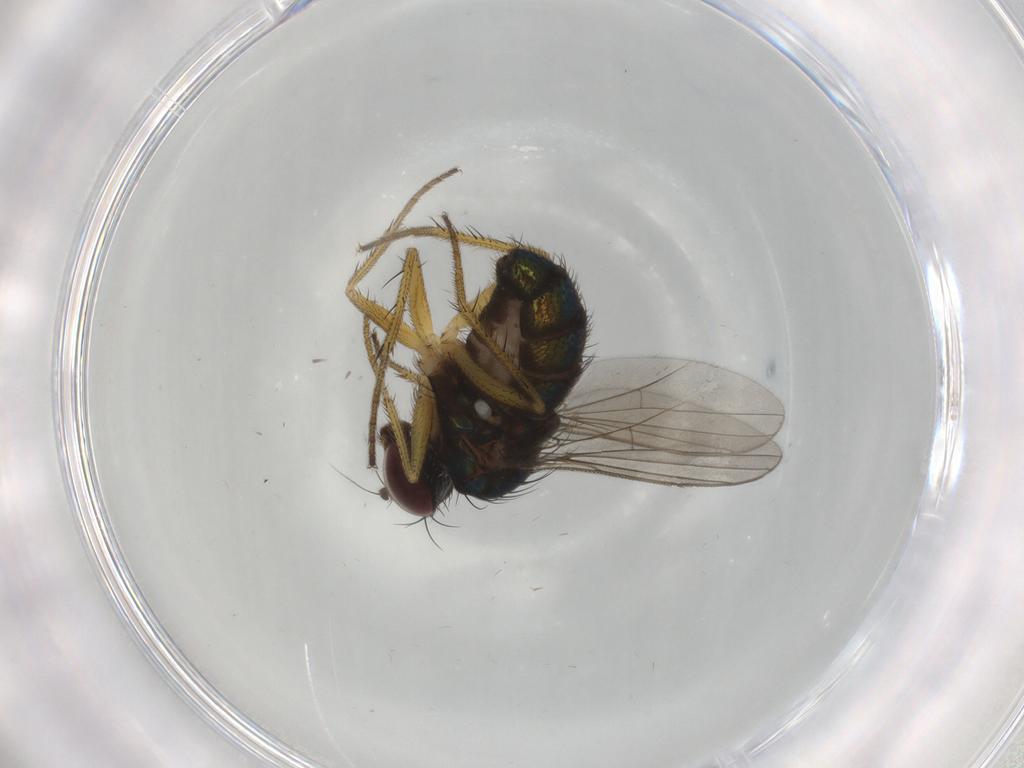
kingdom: Animalia
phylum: Arthropoda
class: Insecta
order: Diptera
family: Dolichopodidae
